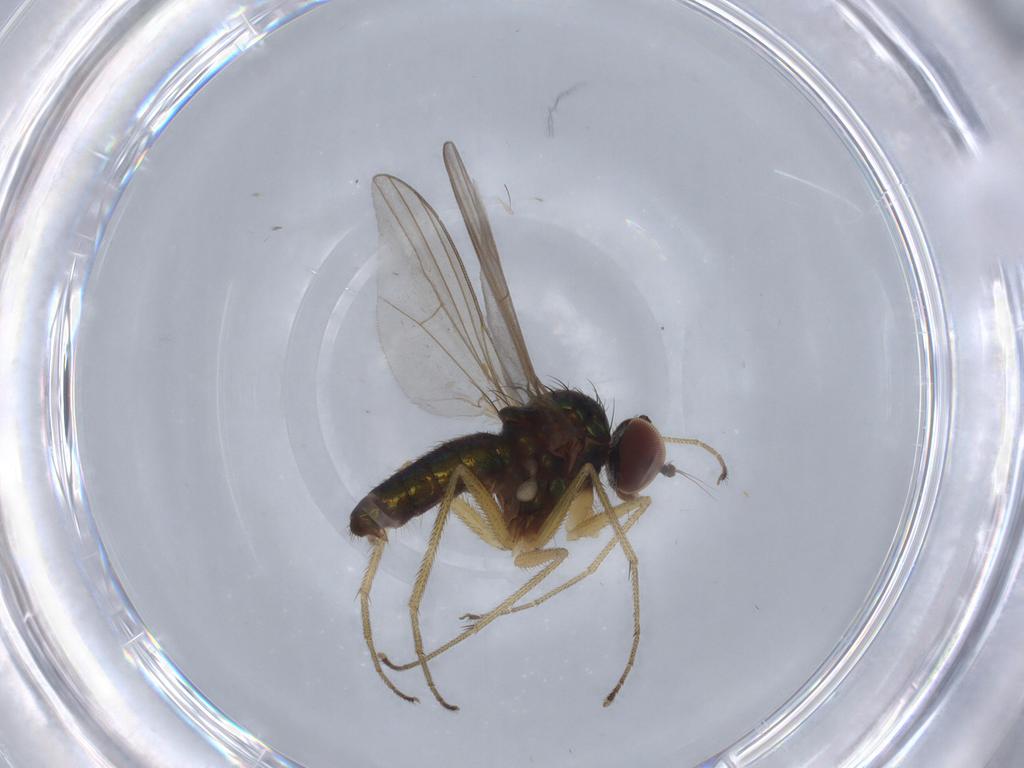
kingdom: Animalia
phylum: Arthropoda
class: Insecta
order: Diptera
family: Dolichopodidae
